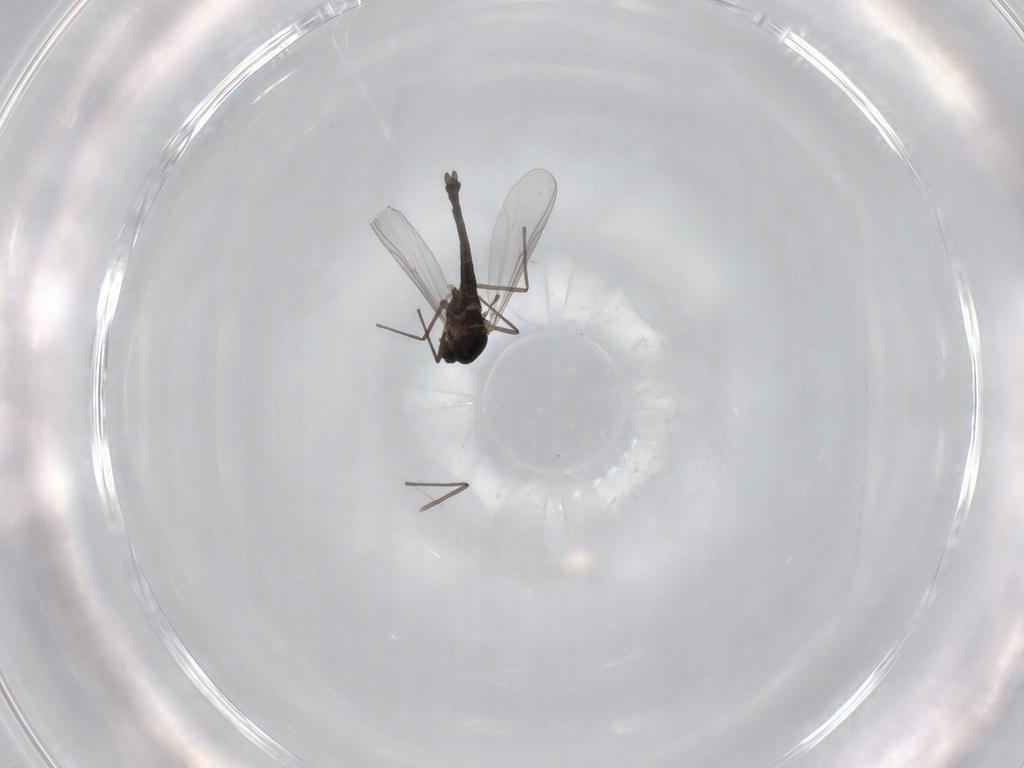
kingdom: Animalia
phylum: Arthropoda
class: Insecta
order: Diptera
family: Chironomidae
